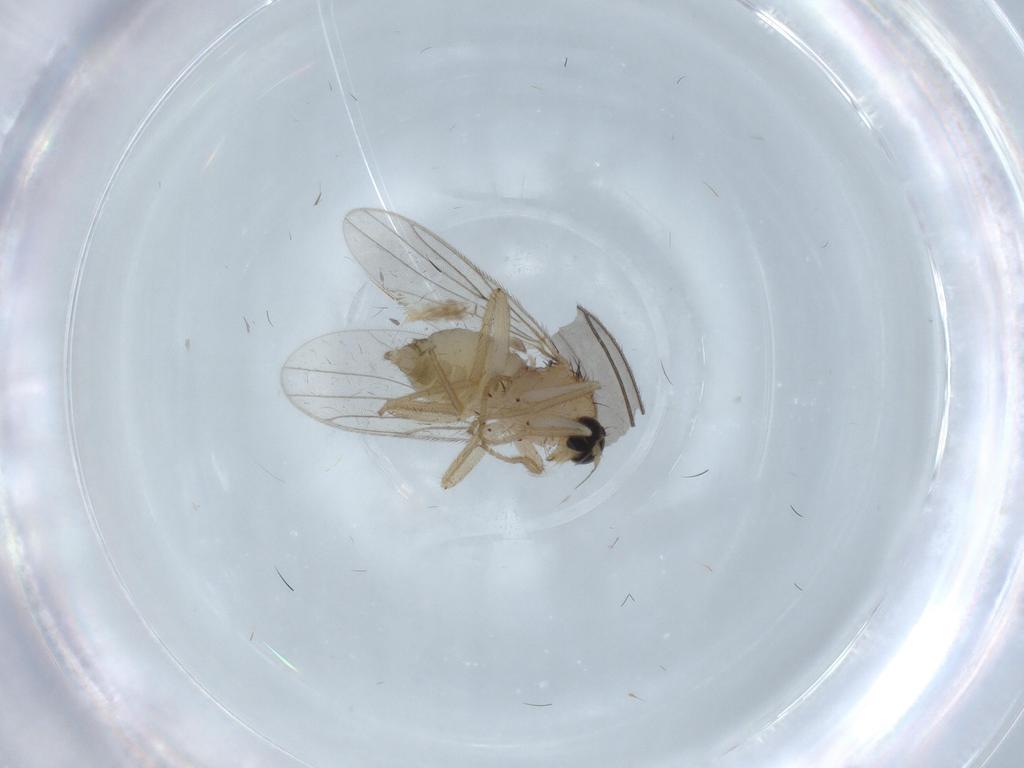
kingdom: Animalia
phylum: Arthropoda
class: Insecta
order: Diptera
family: Hybotidae
